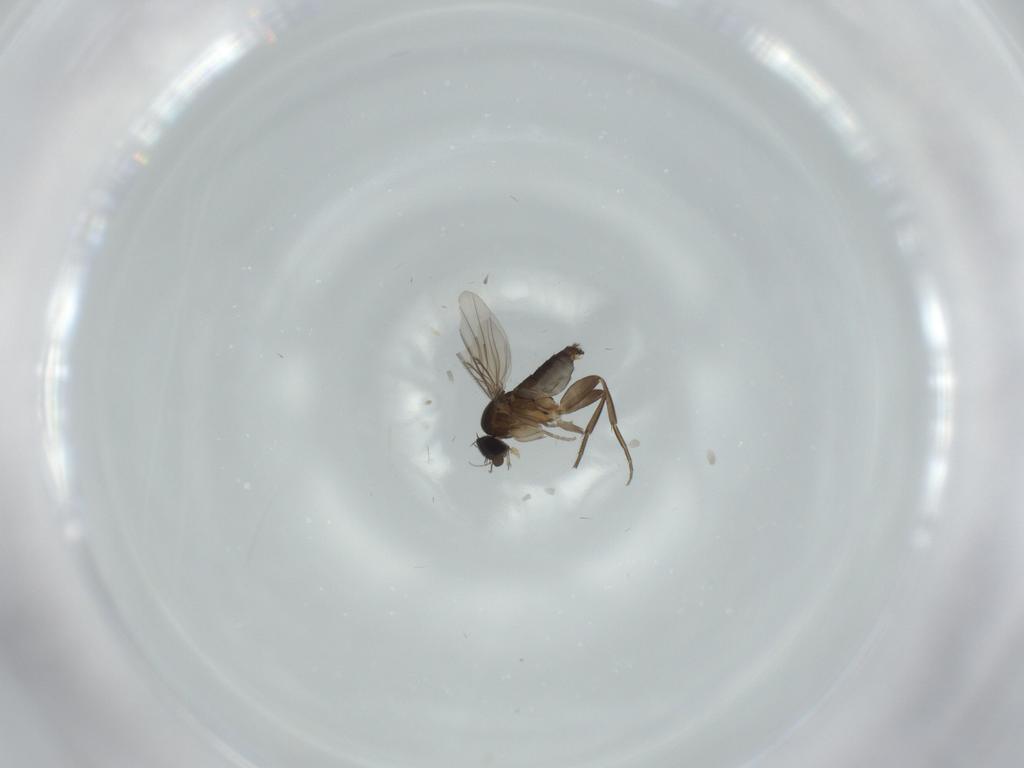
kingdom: Animalia
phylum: Arthropoda
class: Insecta
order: Diptera
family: Phoridae
